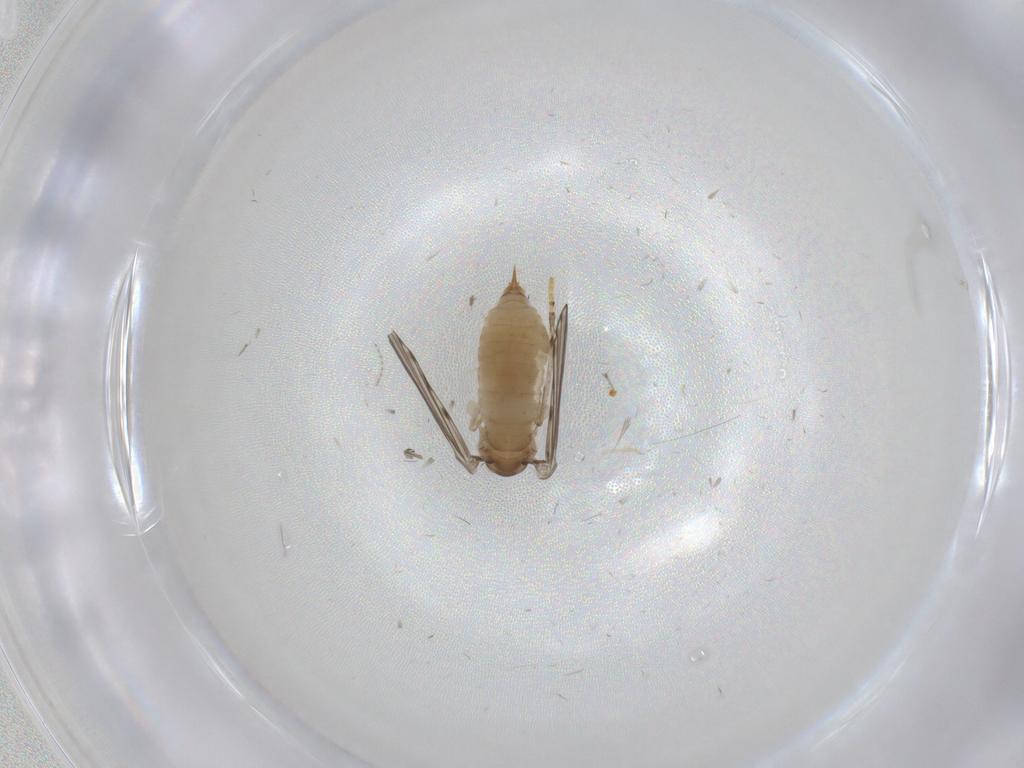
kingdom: Animalia
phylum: Arthropoda
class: Insecta
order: Diptera
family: Psychodidae
